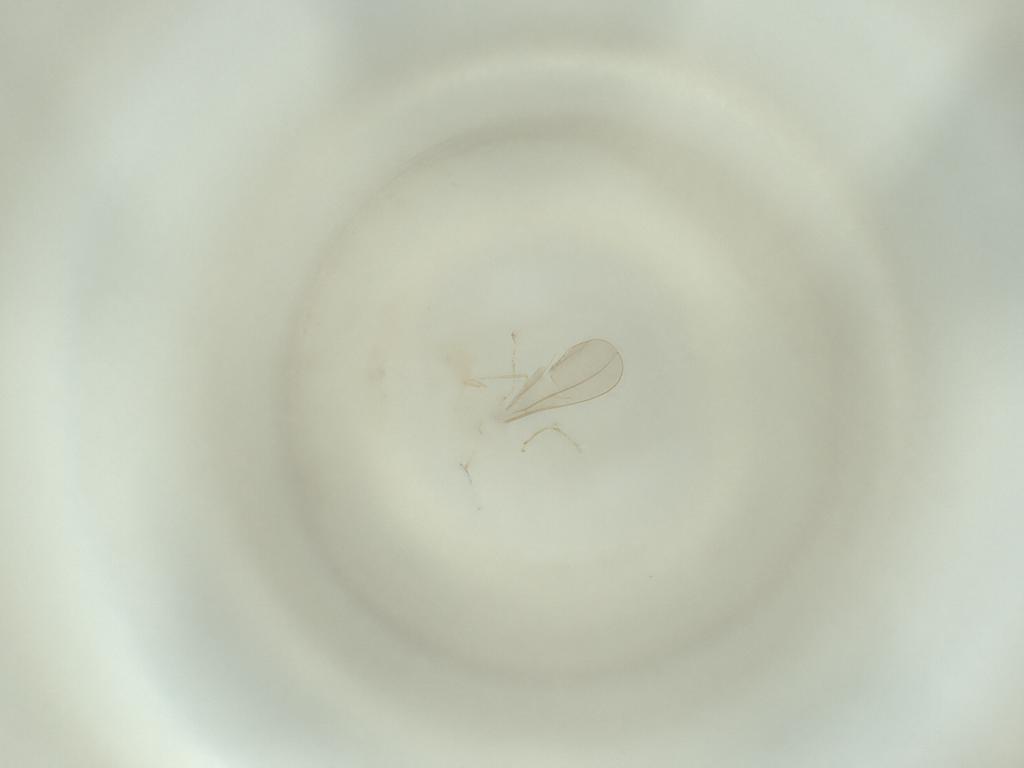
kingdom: Animalia
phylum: Arthropoda
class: Insecta
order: Diptera
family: Cecidomyiidae
